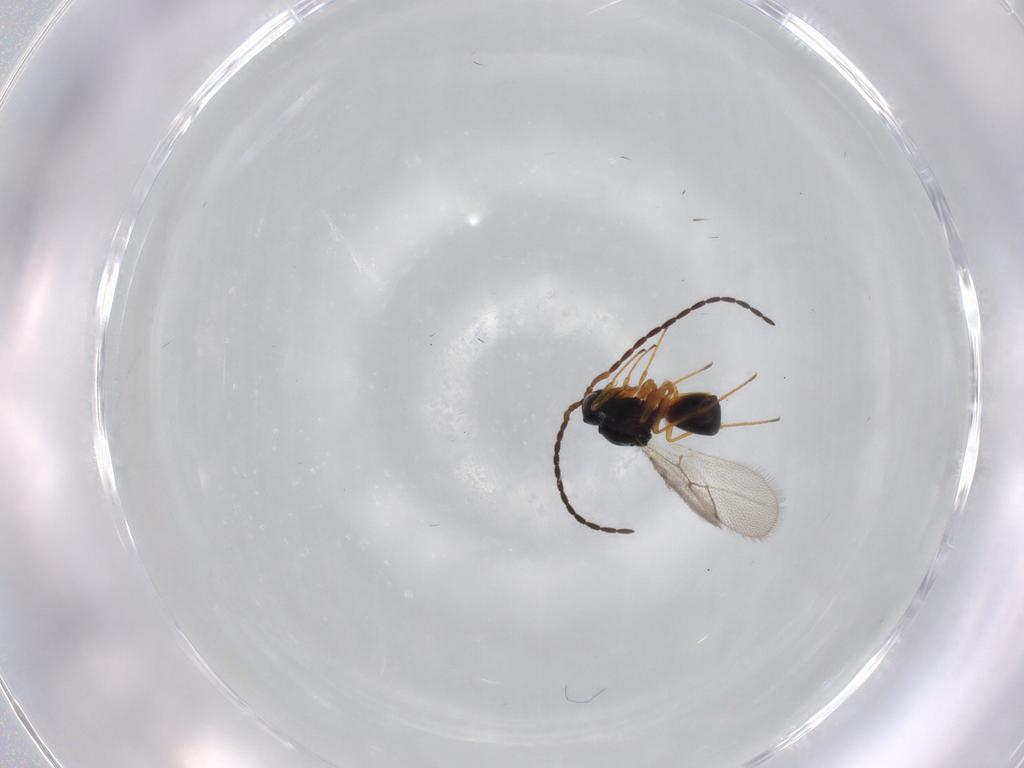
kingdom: Animalia
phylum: Arthropoda
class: Insecta
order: Hymenoptera
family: Figitidae
